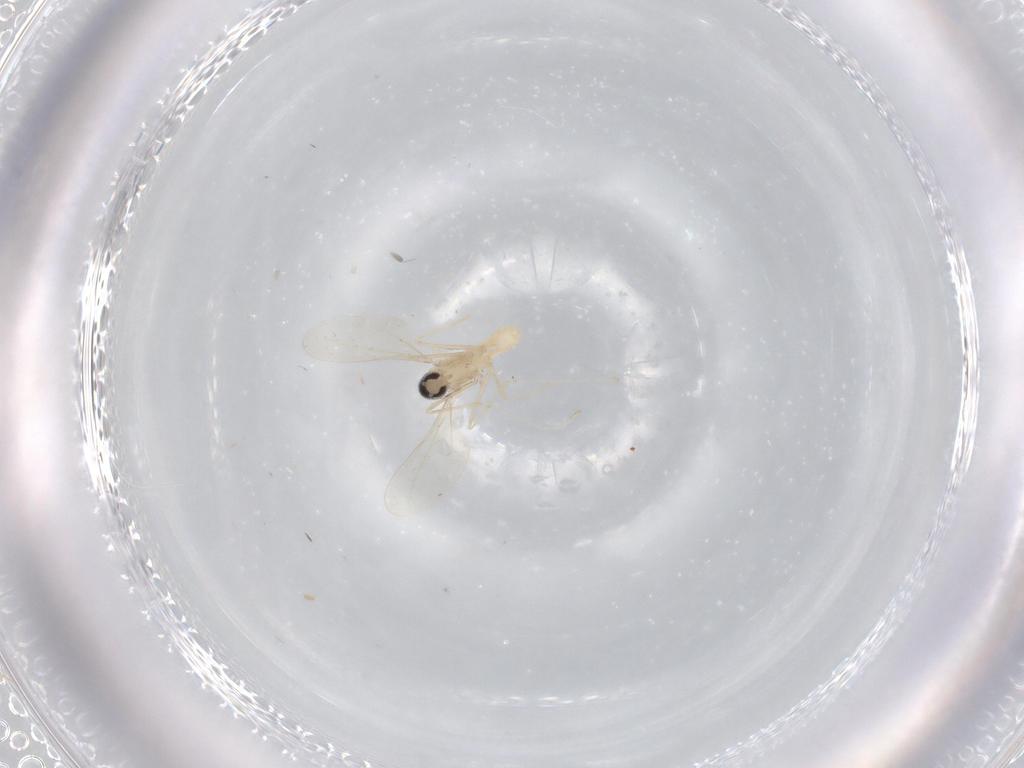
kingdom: Animalia
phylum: Arthropoda
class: Insecta
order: Diptera
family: Cecidomyiidae
